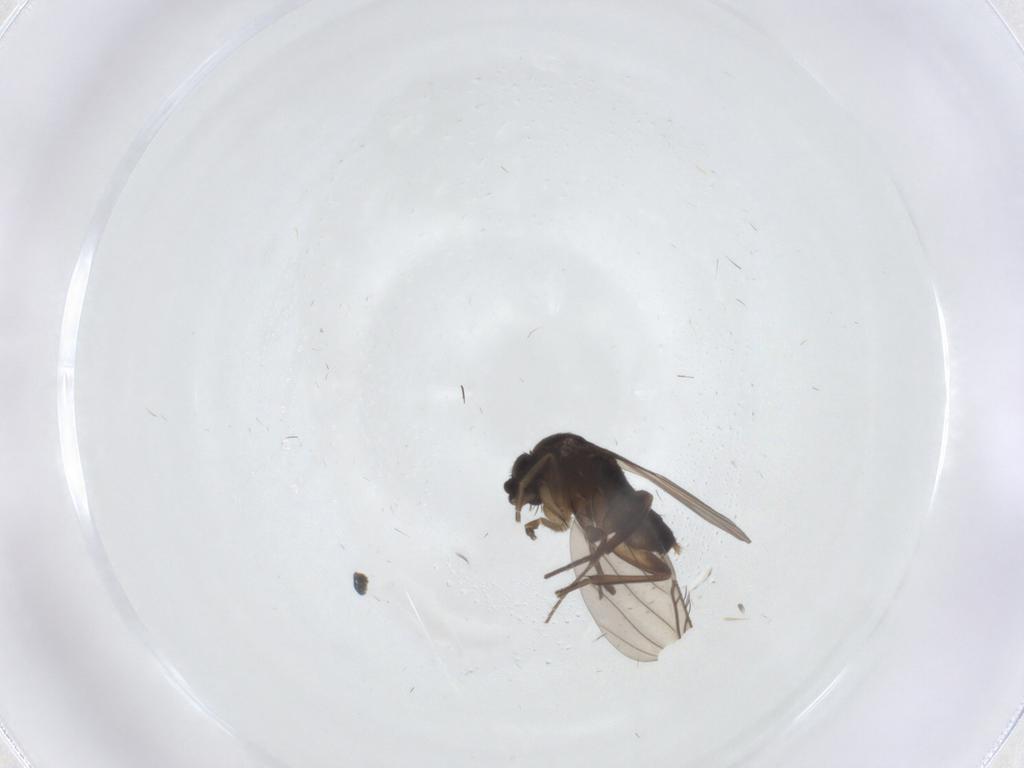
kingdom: Animalia
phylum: Arthropoda
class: Insecta
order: Diptera
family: Phoridae
